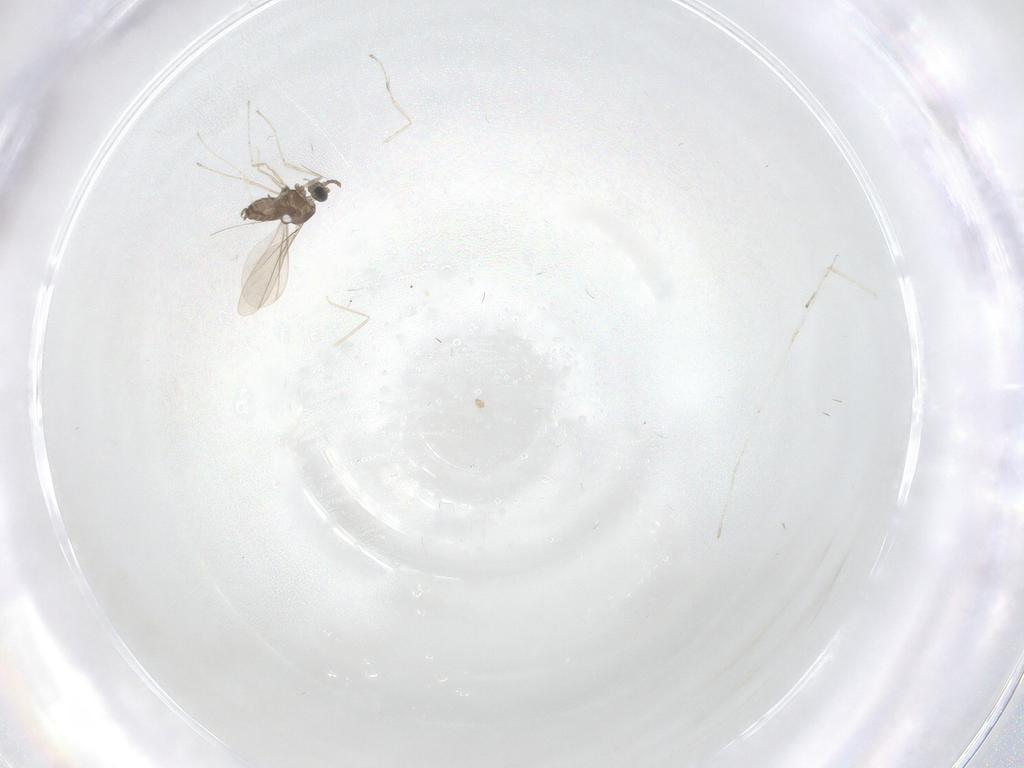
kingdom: Animalia
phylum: Arthropoda
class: Insecta
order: Diptera
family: Cecidomyiidae
